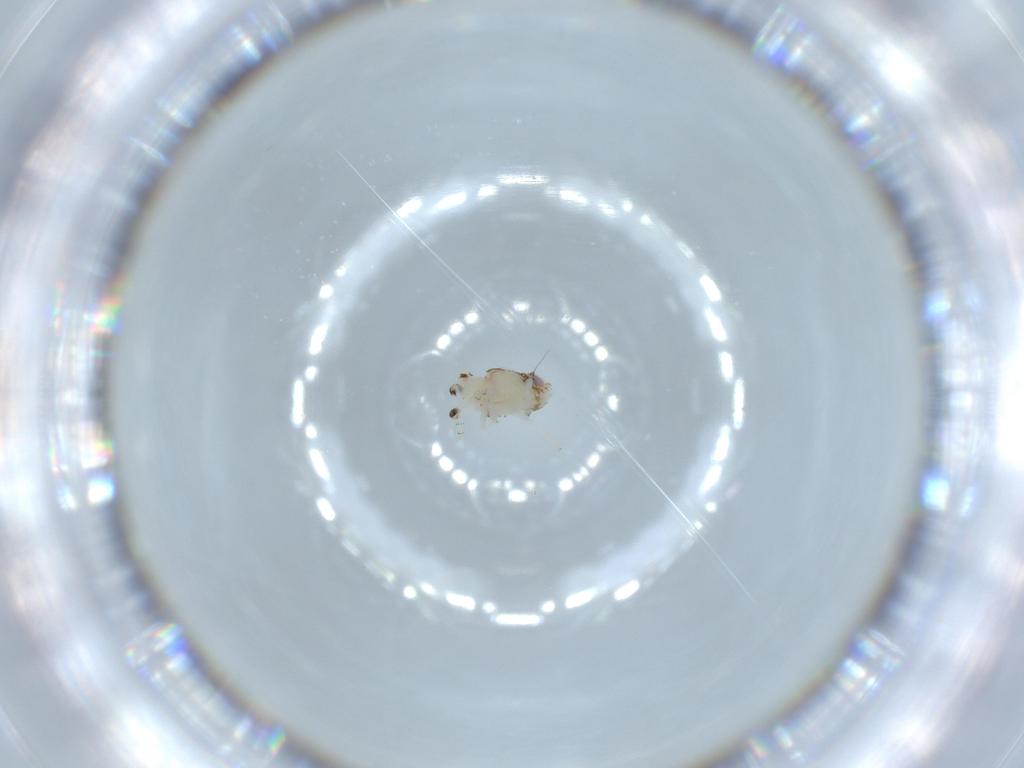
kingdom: Animalia
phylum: Arthropoda
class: Insecta
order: Hemiptera
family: Nogodinidae
